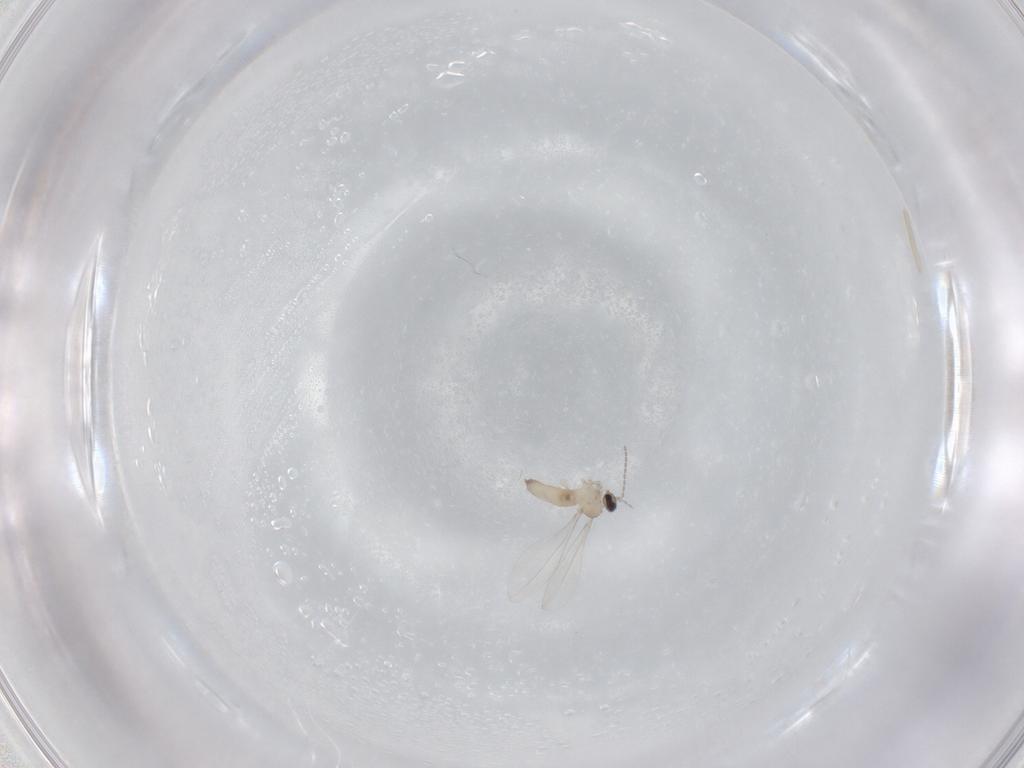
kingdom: Animalia
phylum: Arthropoda
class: Insecta
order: Diptera
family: Cecidomyiidae
